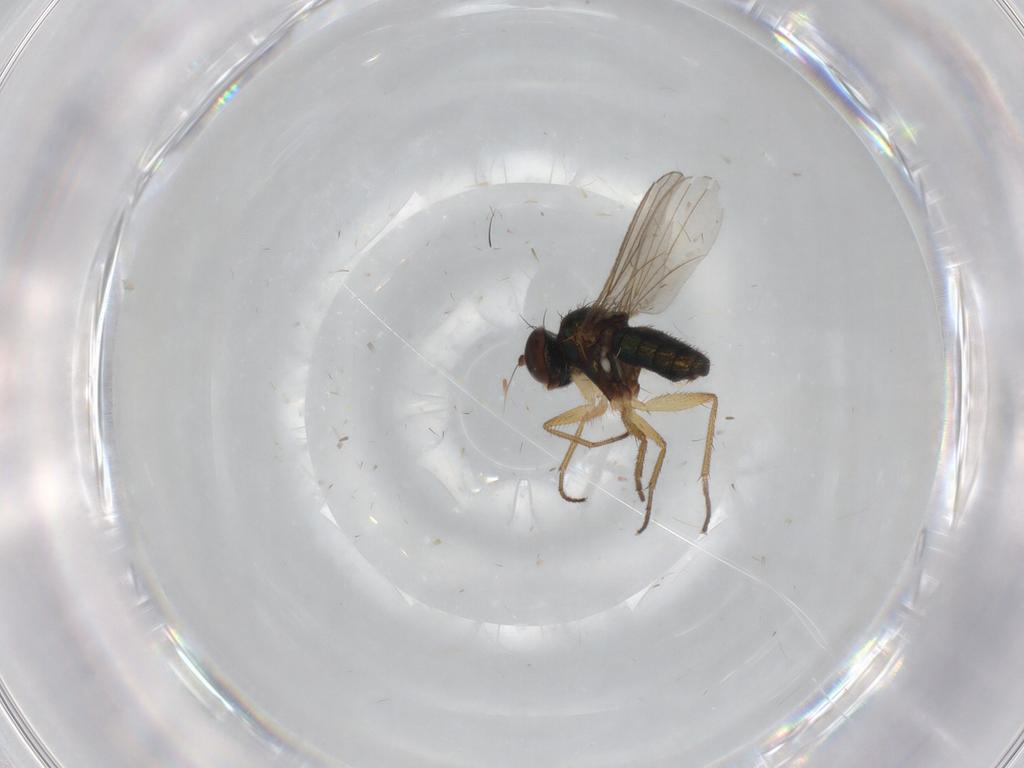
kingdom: Animalia
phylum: Arthropoda
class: Insecta
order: Diptera
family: Dolichopodidae
